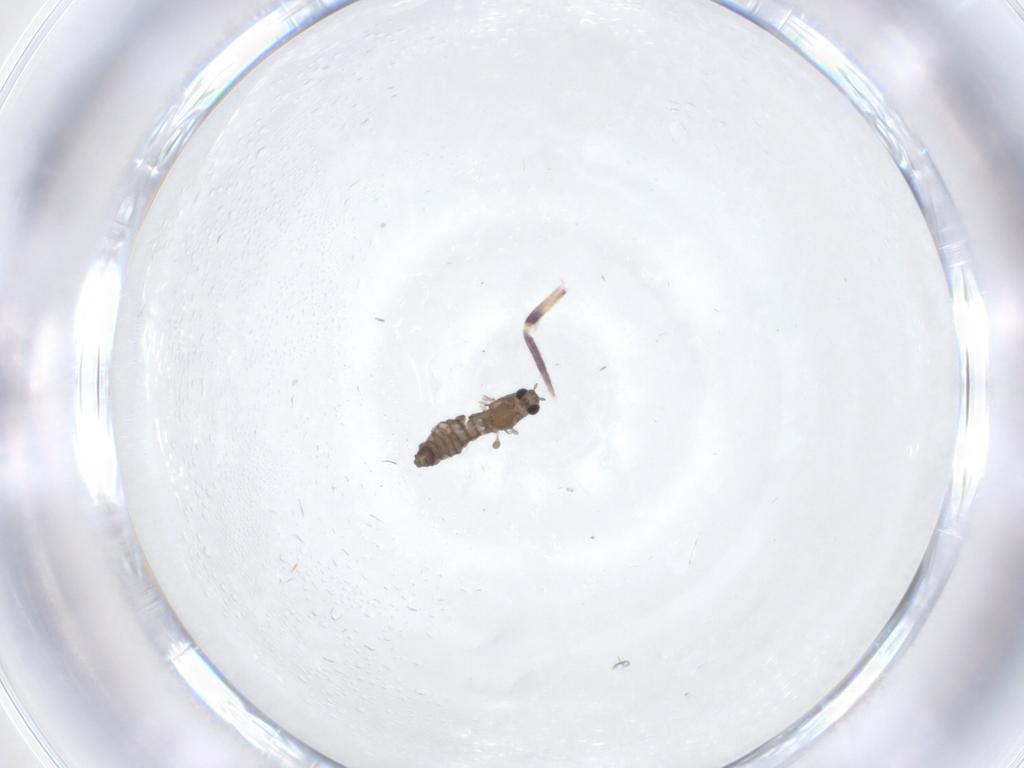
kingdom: Animalia
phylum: Arthropoda
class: Insecta
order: Diptera
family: Chironomidae
